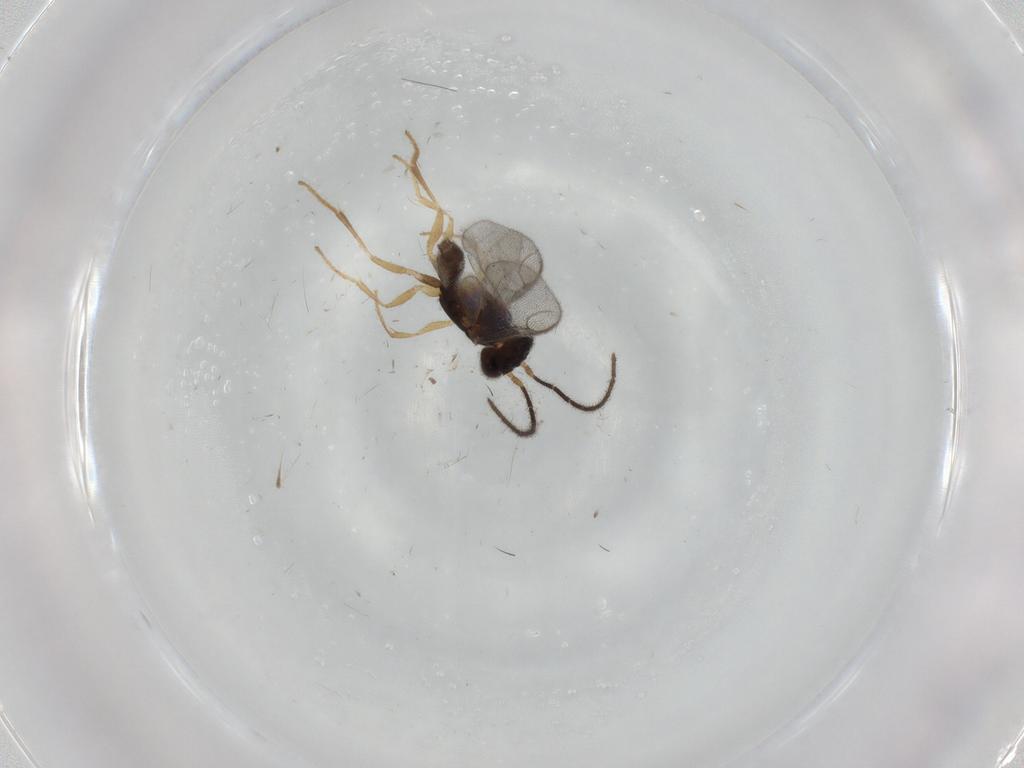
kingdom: Animalia
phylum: Arthropoda
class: Insecta
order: Hymenoptera
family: Dryinidae
